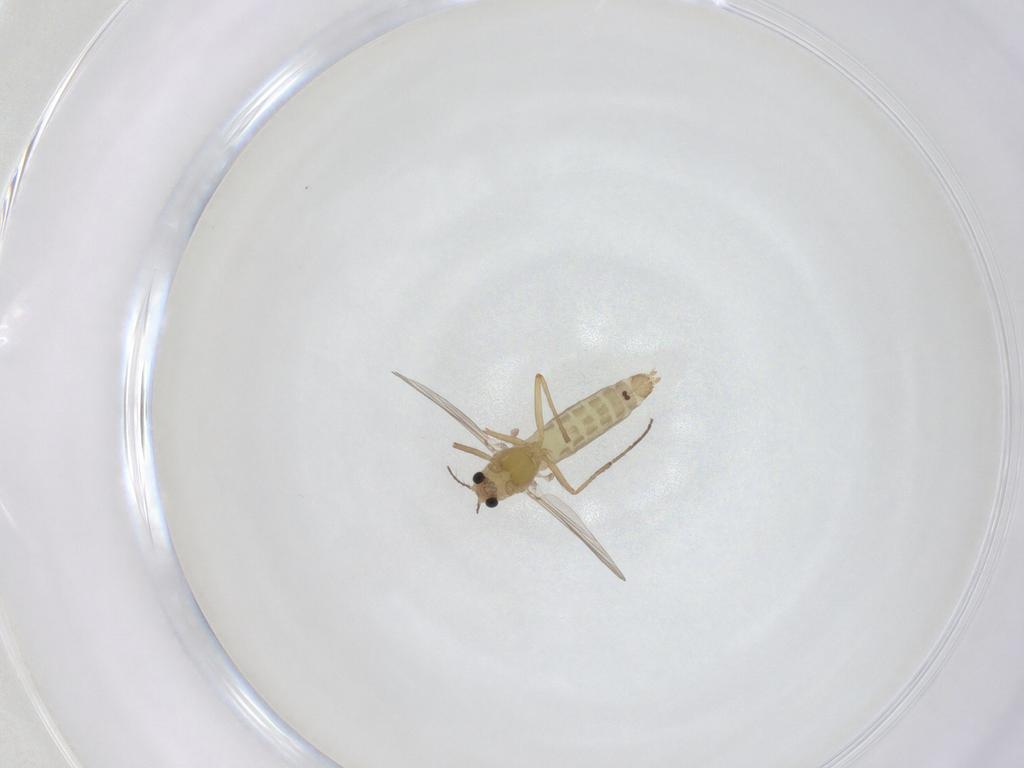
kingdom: Animalia
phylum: Arthropoda
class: Insecta
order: Diptera
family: Chironomidae
